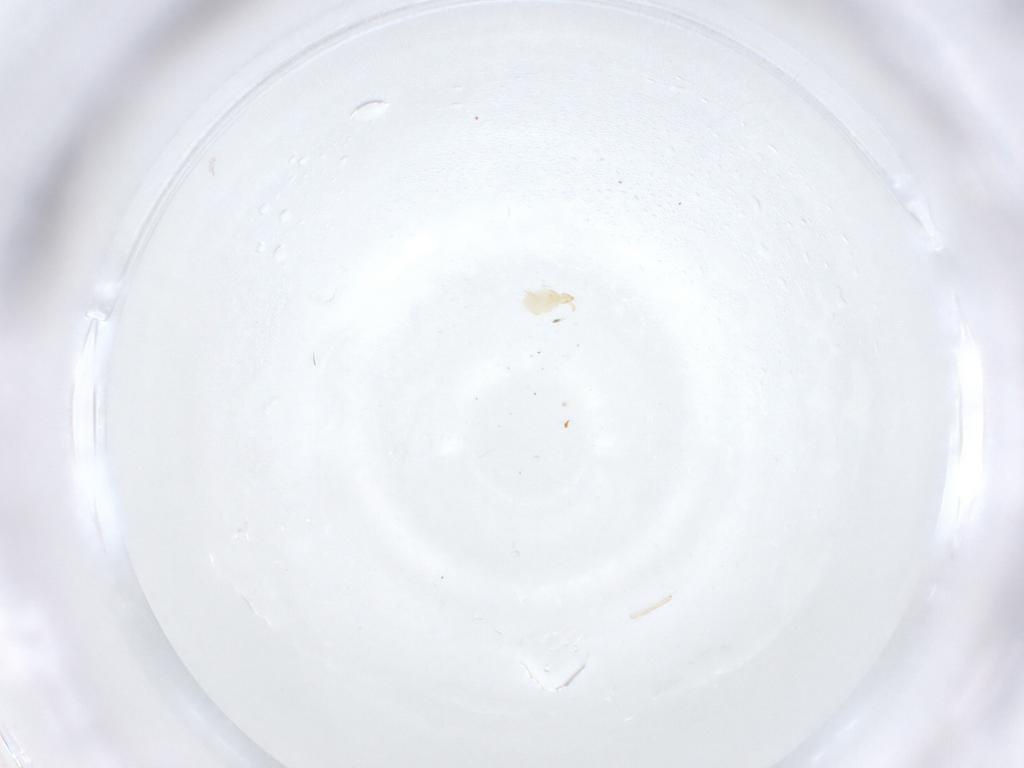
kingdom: Animalia
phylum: Arthropoda
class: Arachnida
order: Trombidiformes
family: Erythraeidae
